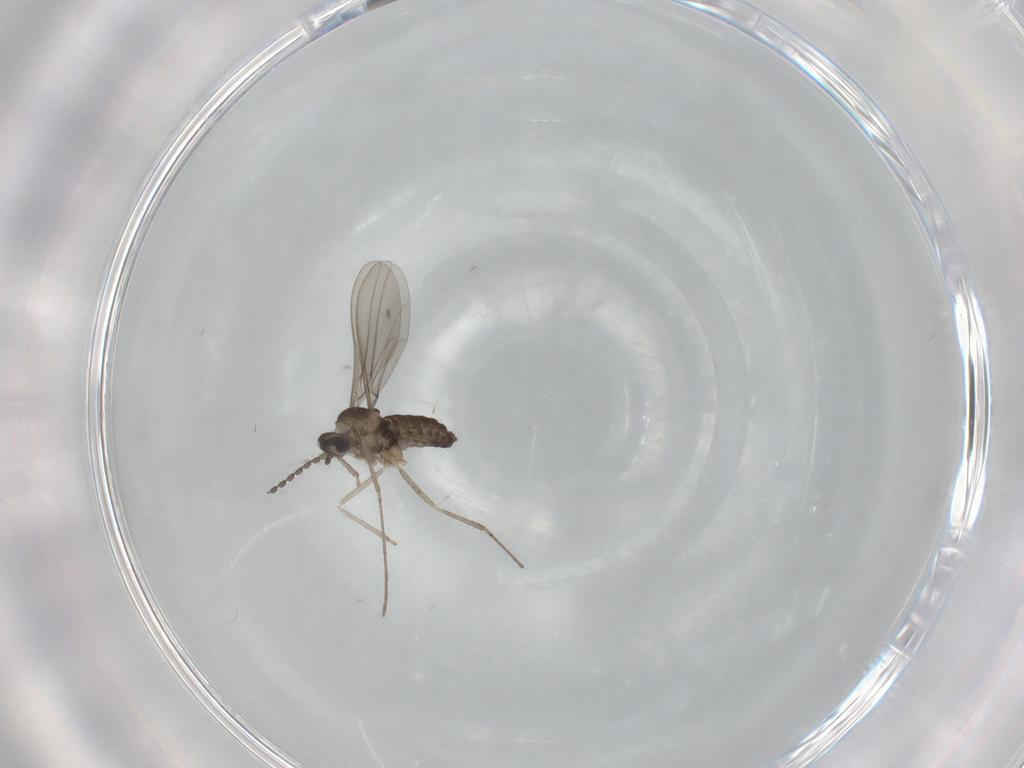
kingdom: Animalia
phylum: Arthropoda
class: Insecta
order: Diptera
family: Cecidomyiidae
